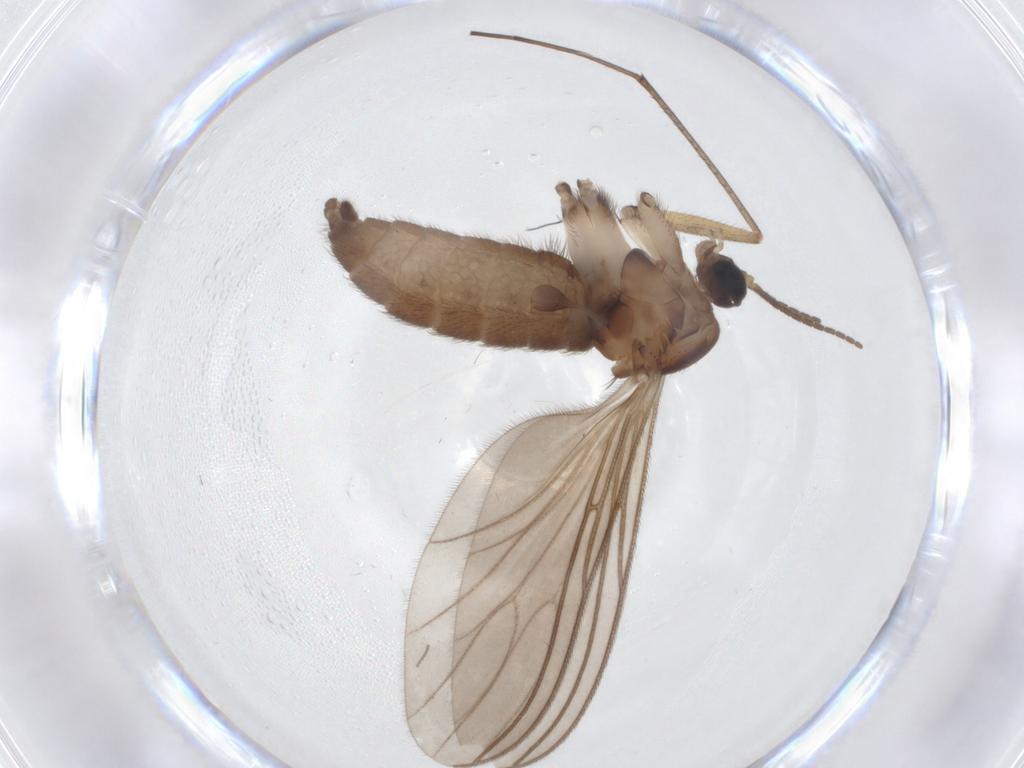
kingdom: Animalia
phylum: Arthropoda
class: Insecta
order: Diptera
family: Sciaridae
